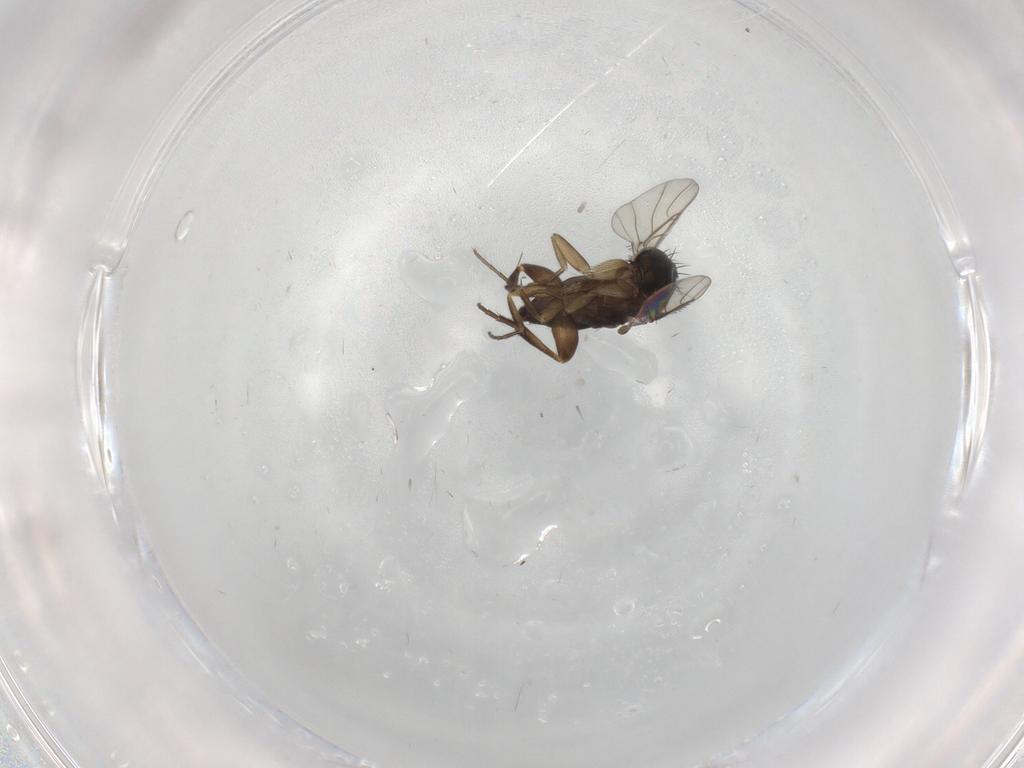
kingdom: Animalia
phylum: Arthropoda
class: Insecta
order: Diptera
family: Phoridae
